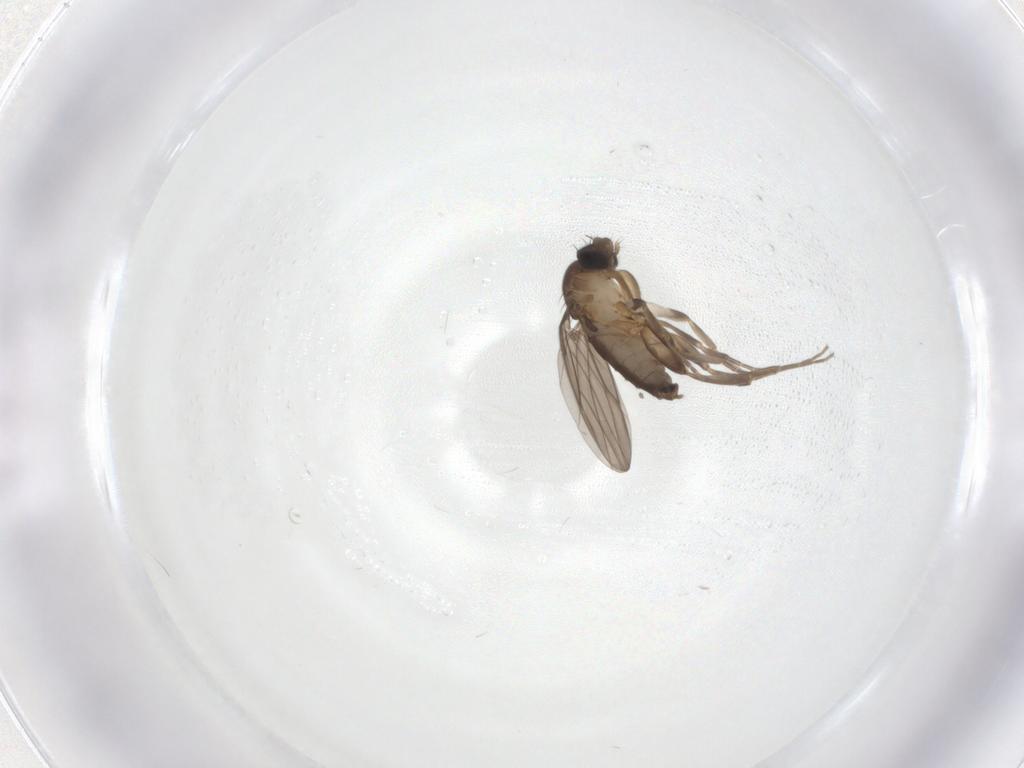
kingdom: Animalia
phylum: Arthropoda
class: Insecta
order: Diptera
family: Phoridae
